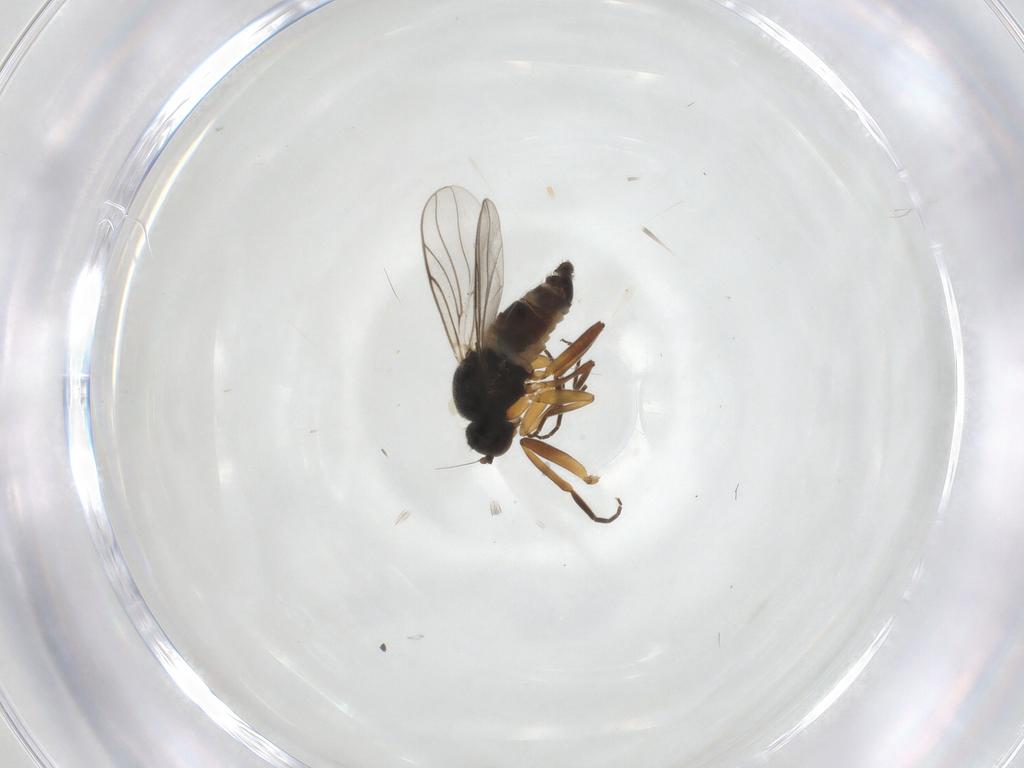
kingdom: Animalia
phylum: Arthropoda
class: Insecta
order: Diptera
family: Hybotidae
